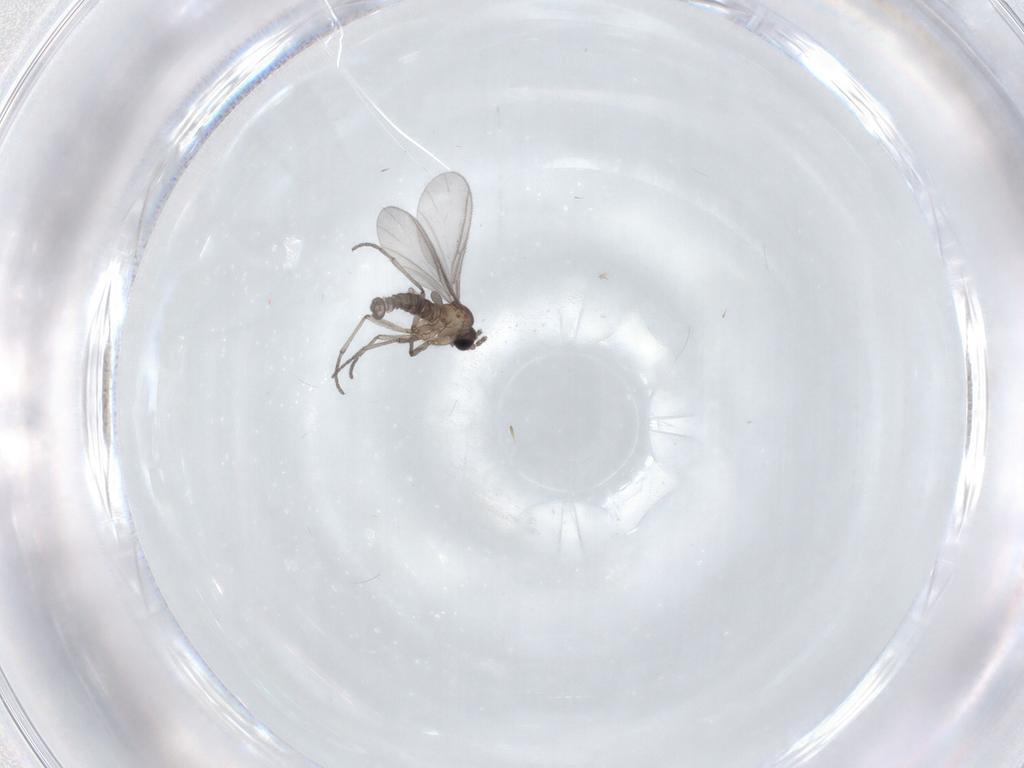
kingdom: Animalia
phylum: Arthropoda
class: Insecta
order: Diptera
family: Sciaridae
